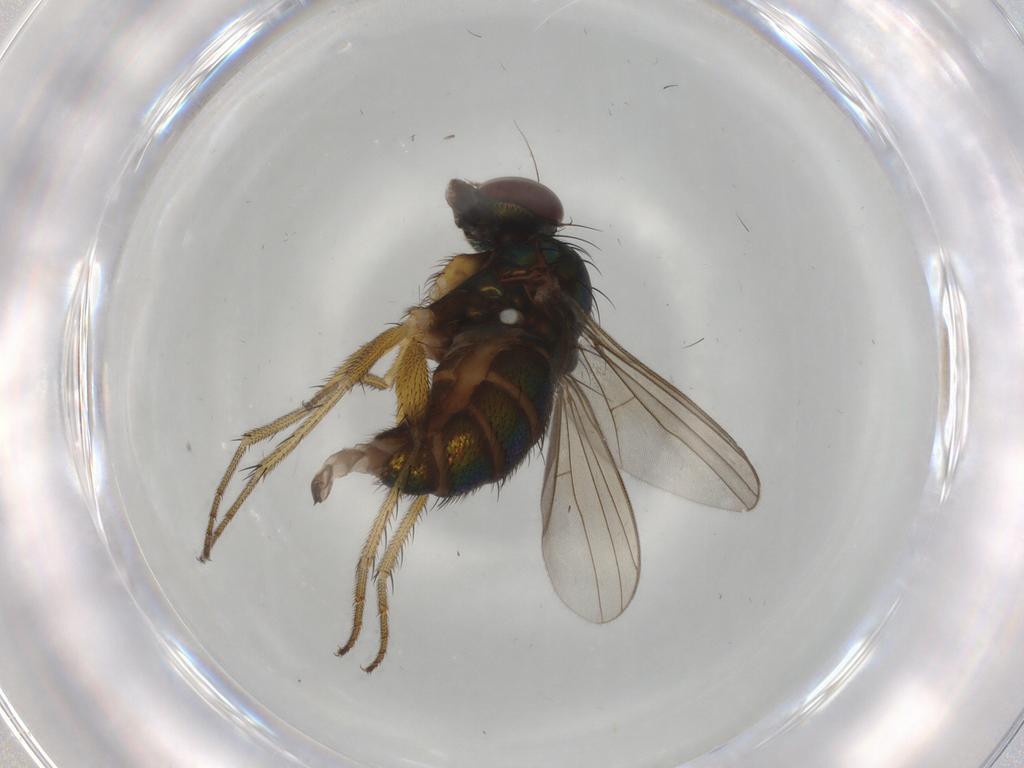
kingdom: Animalia
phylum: Arthropoda
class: Insecta
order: Diptera
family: Dolichopodidae
